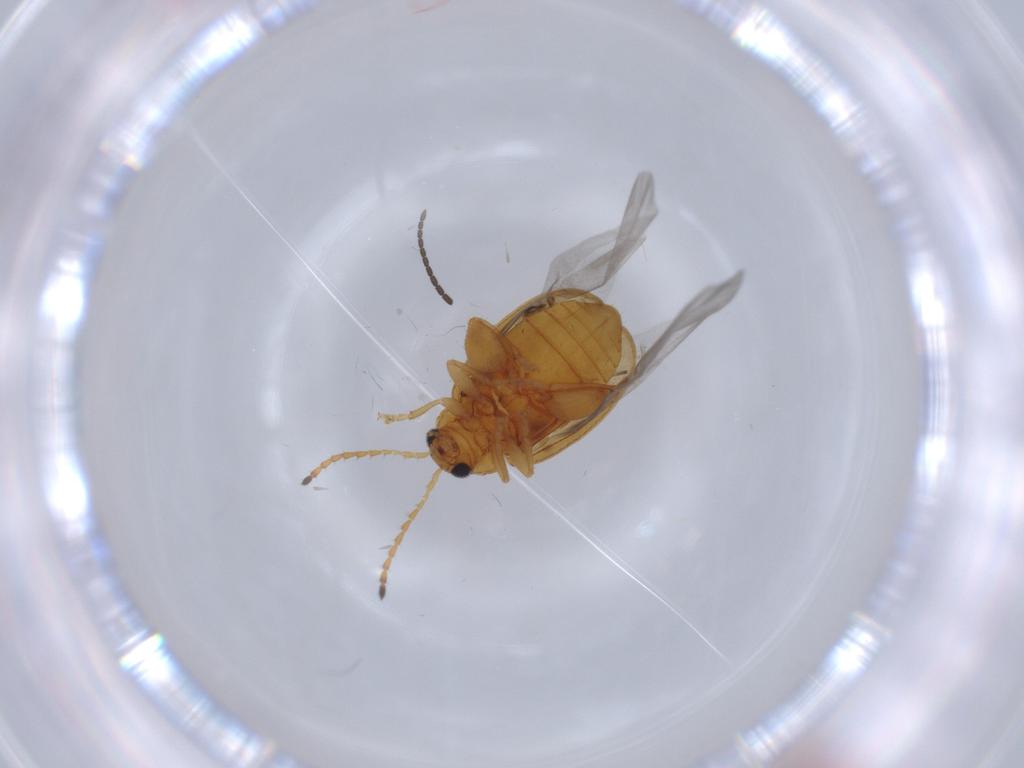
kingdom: Animalia
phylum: Arthropoda
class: Insecta
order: Coleoptera
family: Chrysomelidae
